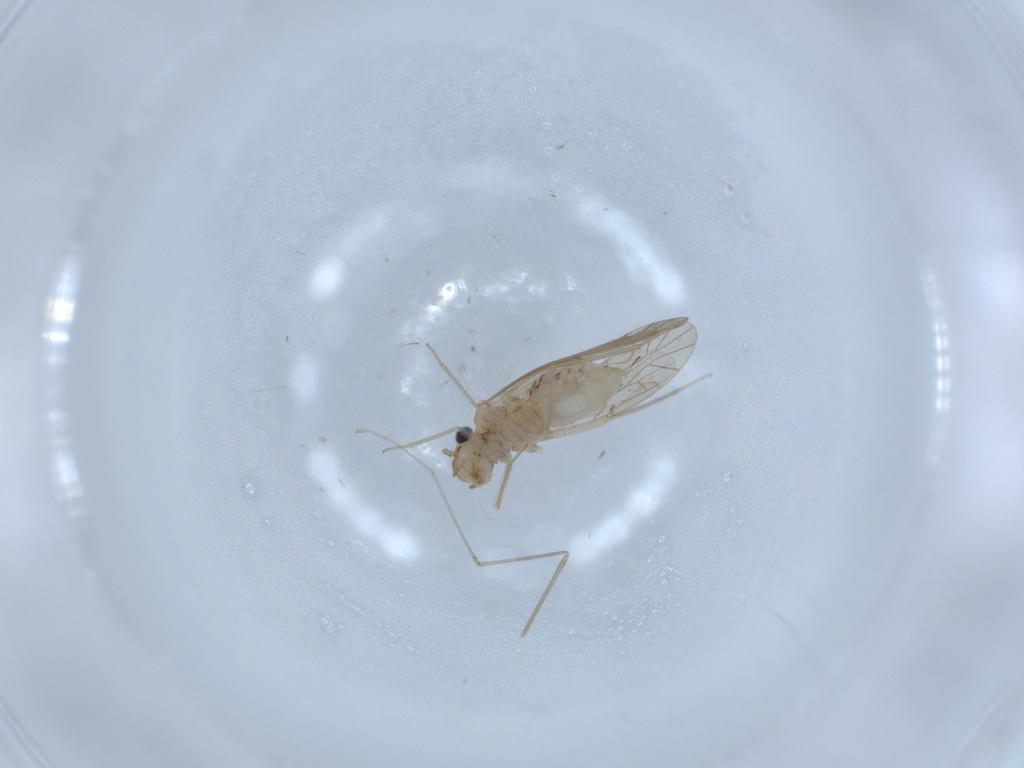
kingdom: Animalia
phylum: Arthropoda
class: Insecta
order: Psocodea
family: Lachesillidae
